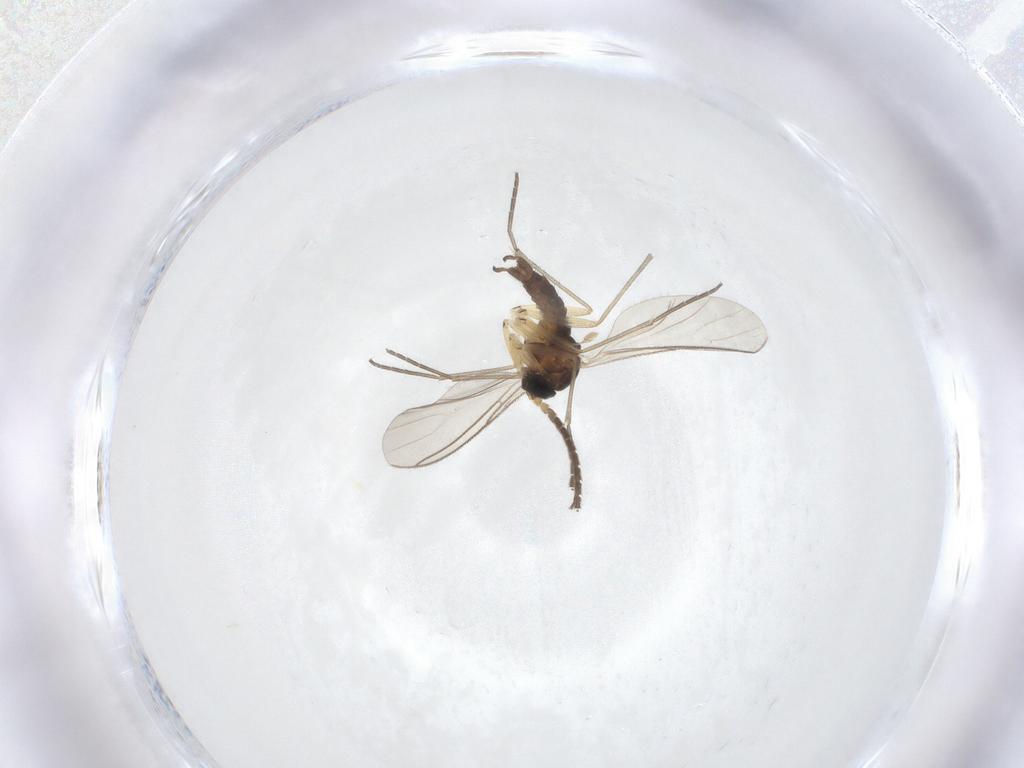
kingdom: Animalia
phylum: Arthropoda
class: Insecta
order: Diptera
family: Sciaridae
